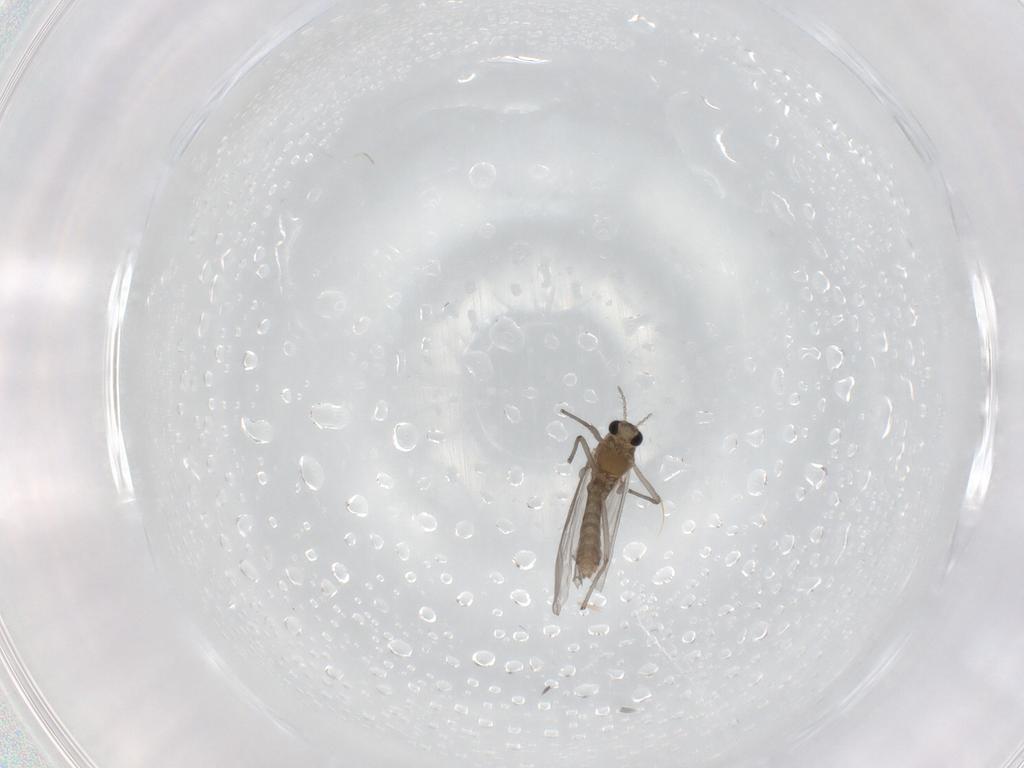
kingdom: Animalia
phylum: Arthropoda
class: Insecta
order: Diptera
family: Chironomidae
